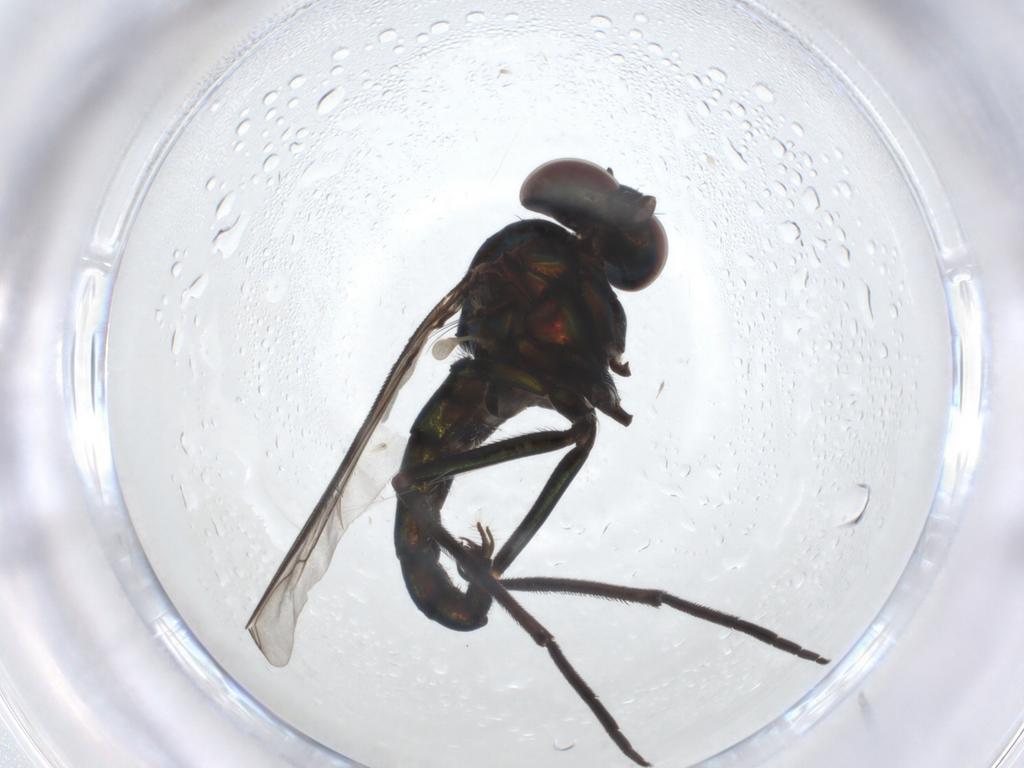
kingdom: Animalia
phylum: Arthropoda
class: Insecta
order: Diptera
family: Dolichopodidae
